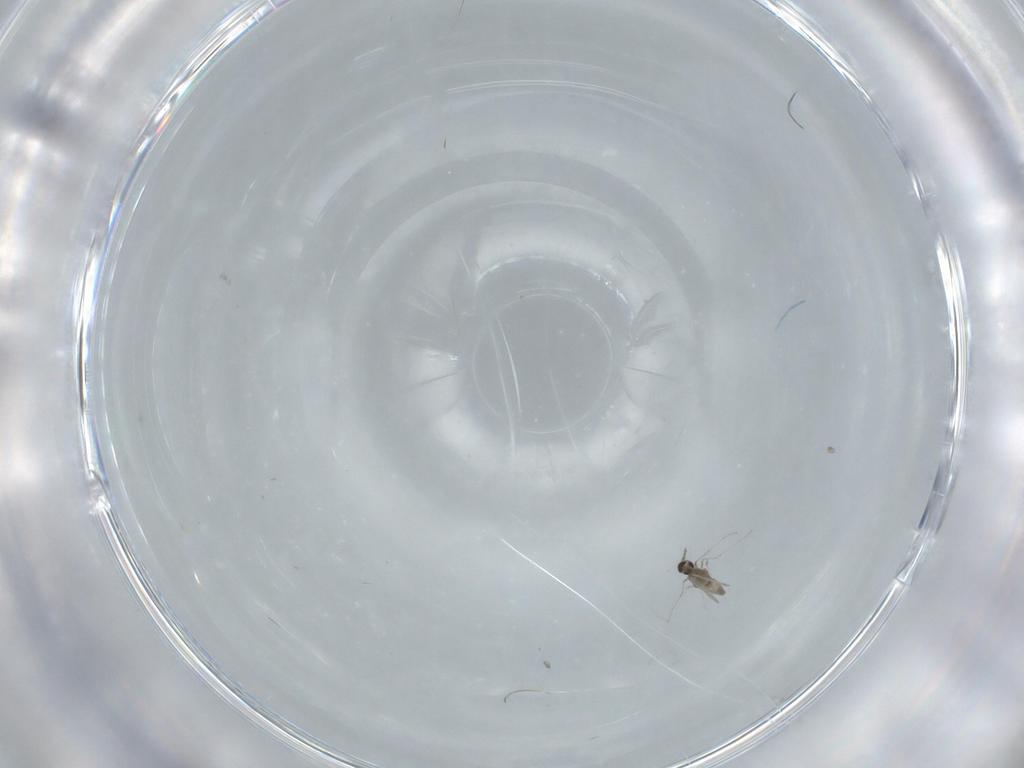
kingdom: Animalia
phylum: Arthropoda
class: Insecta
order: Diptera
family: Cecidomyiidae
